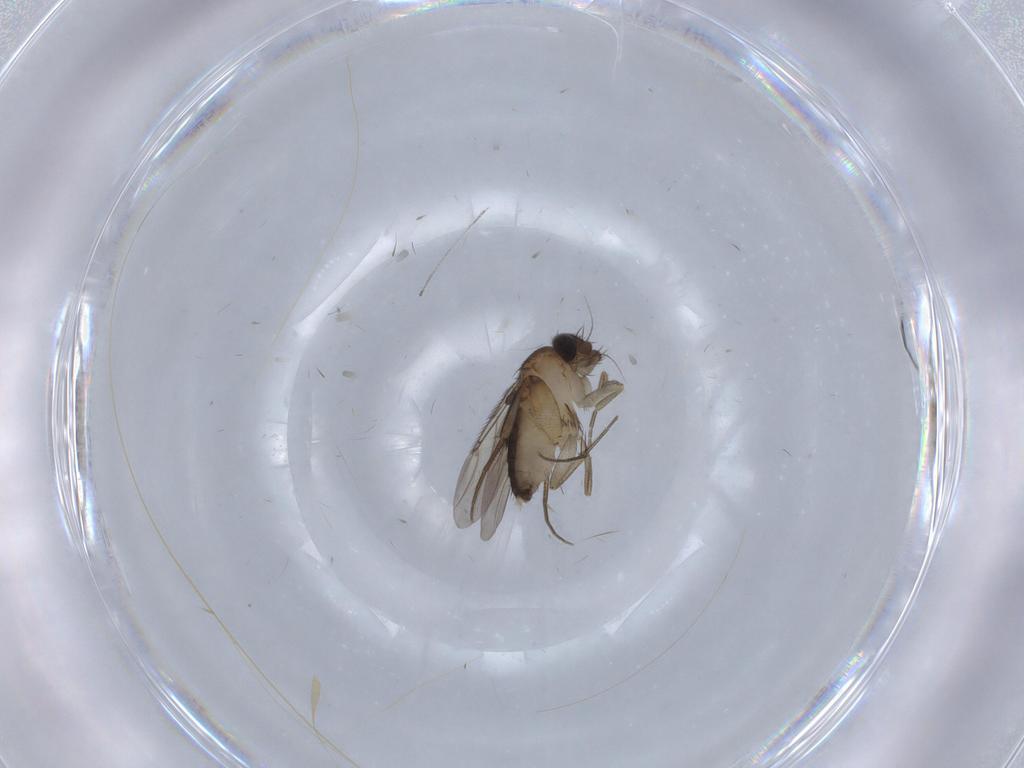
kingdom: Animalia
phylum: Arthropoda
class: Insecta
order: Diptera
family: Phoridae
